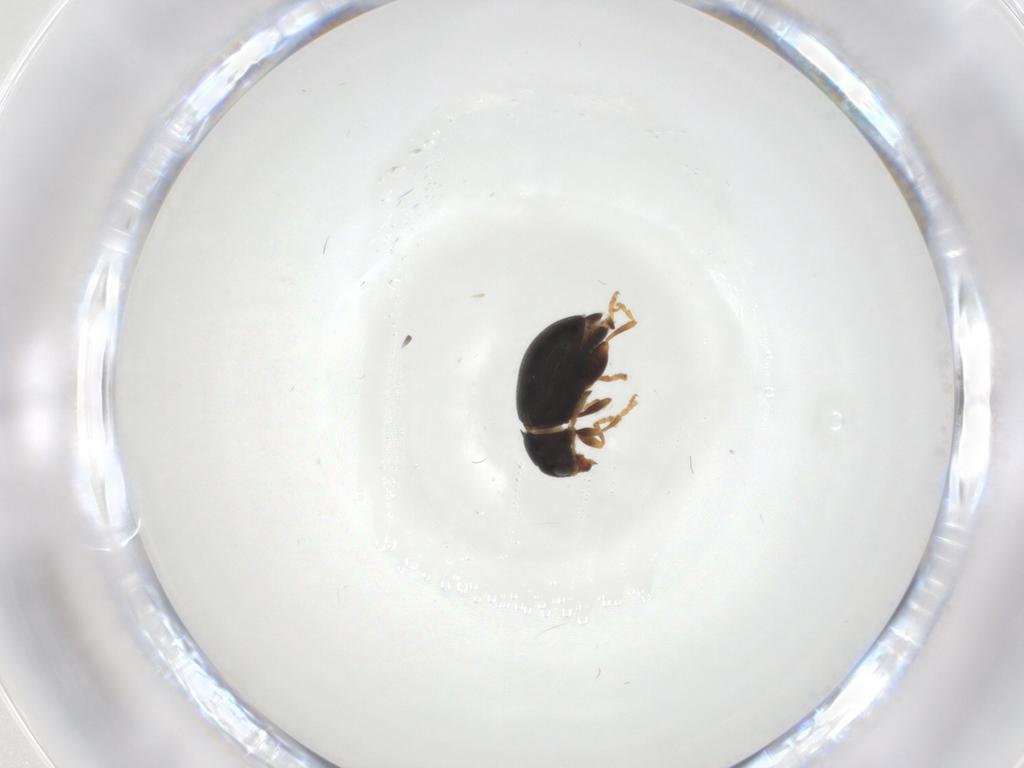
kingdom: Animalia
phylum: Arthropoda
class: Insecta
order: Coleoptera
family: Chrysomelidae
